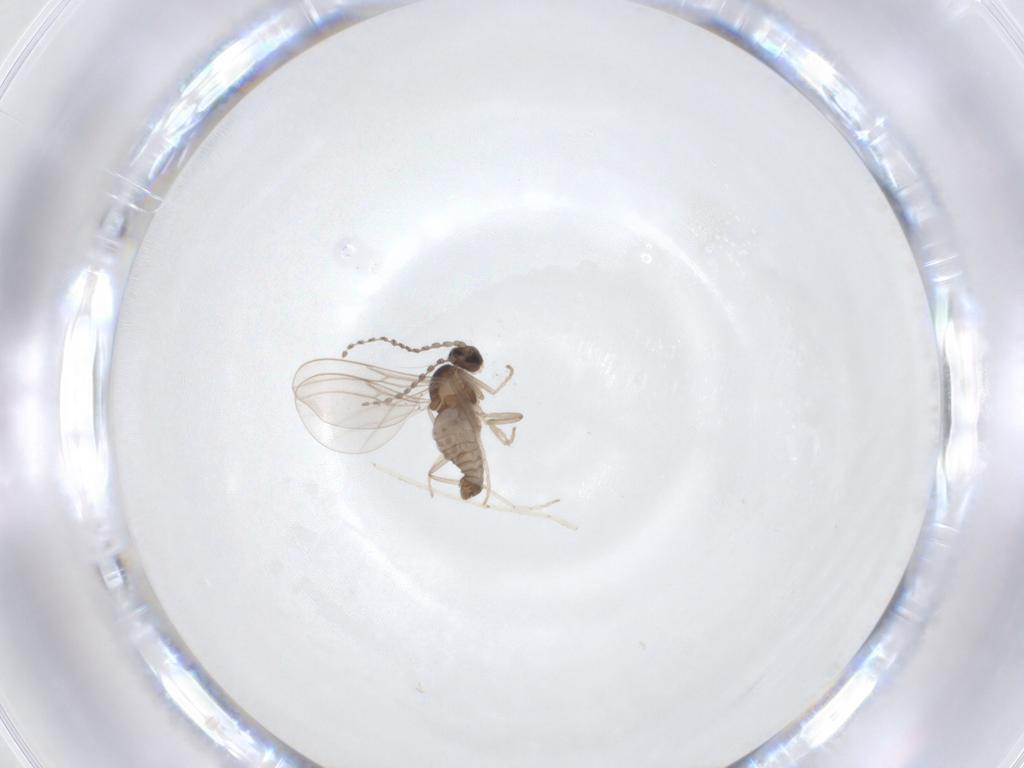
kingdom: Animalia
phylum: Arthropoda
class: Insecta
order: Diptera
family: Cecidomyiidae
